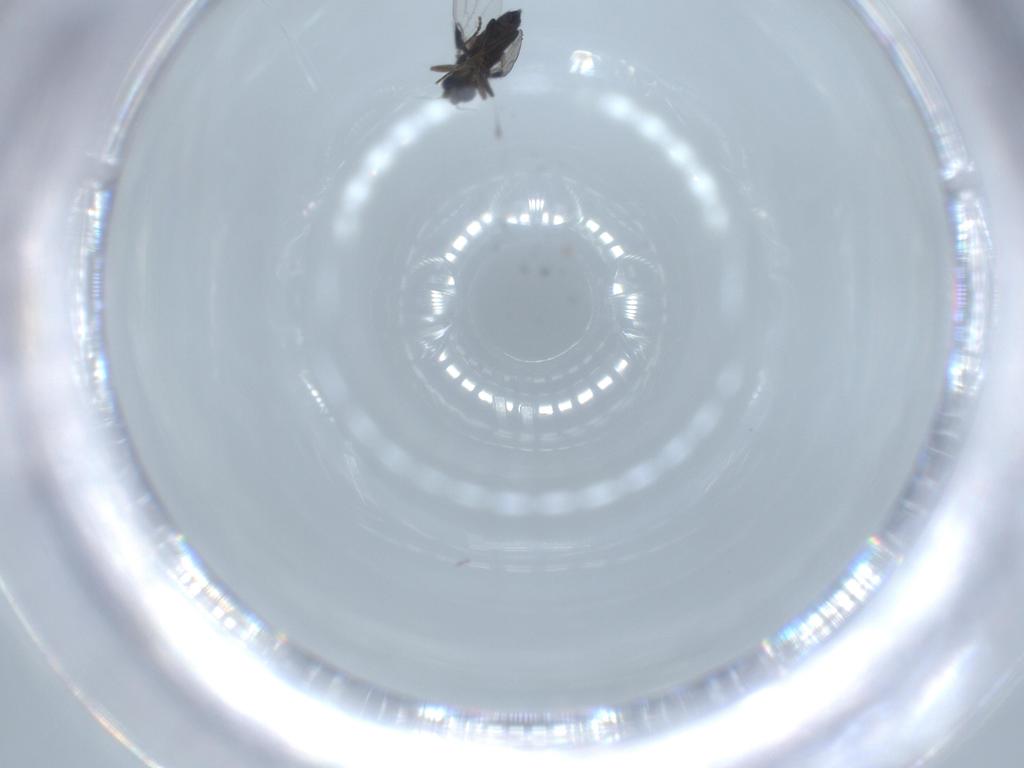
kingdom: Animalia
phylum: Arthropoda
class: Insecta
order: Diptera
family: Phoridae
